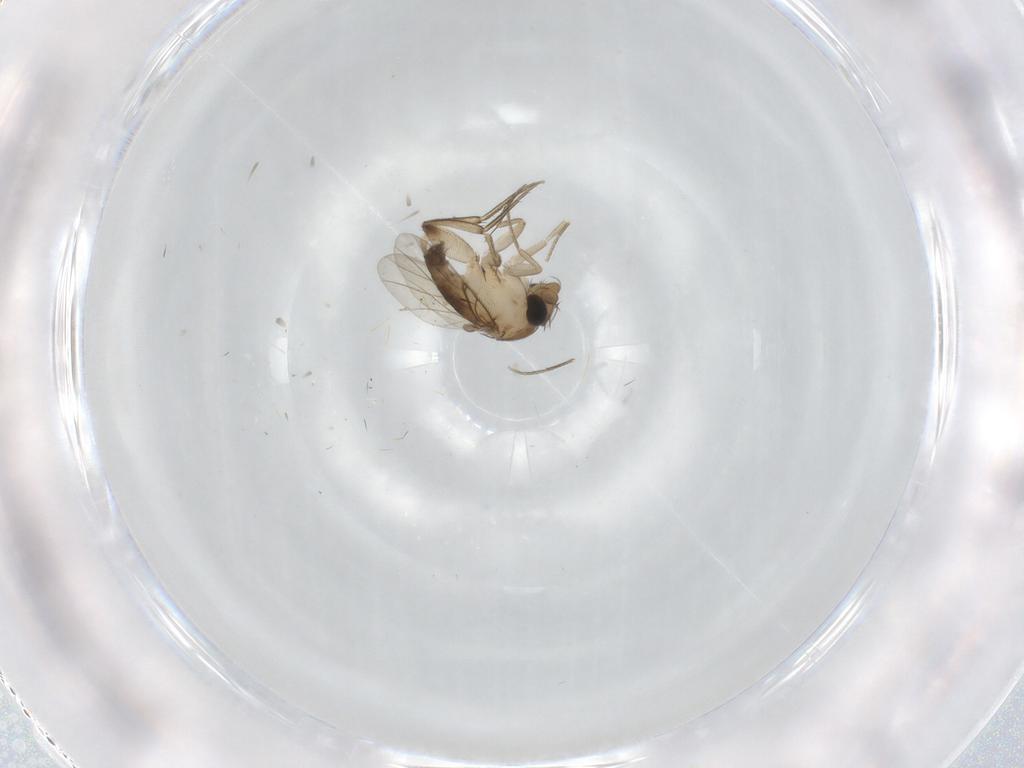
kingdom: Animalia
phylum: Arthropoda
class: Insecta
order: Diptera
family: Phoridae
